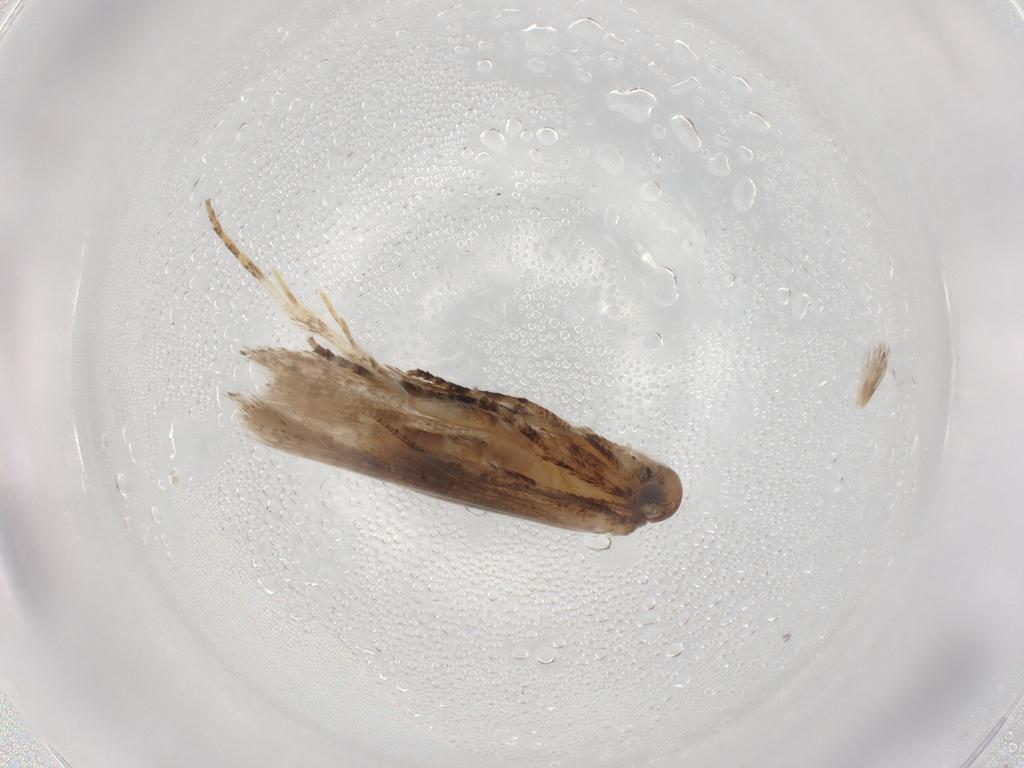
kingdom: Animalia
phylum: Arthropoda
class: Insecta
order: Lepidoptera
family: Gelechiidae
